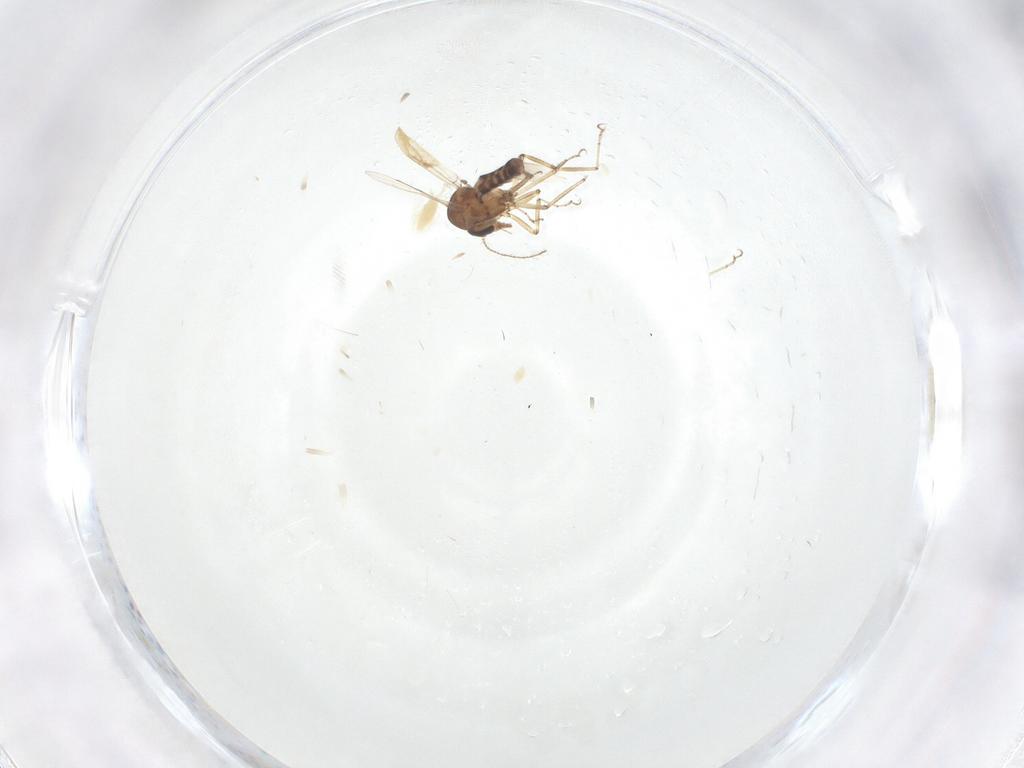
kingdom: Animalia
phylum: Arthropoda
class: Insecta
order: Diptera
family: Ceratopogonidae
